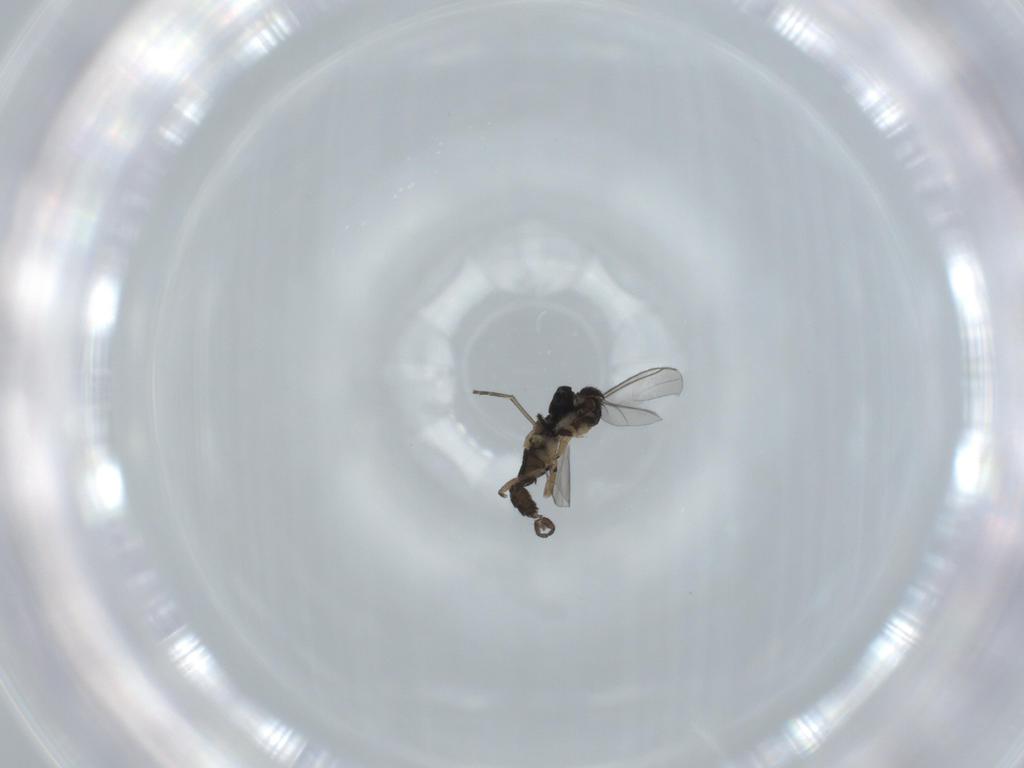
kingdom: Animalia
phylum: Arthropoda
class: Insecta
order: Diptera
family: Sciaridae
